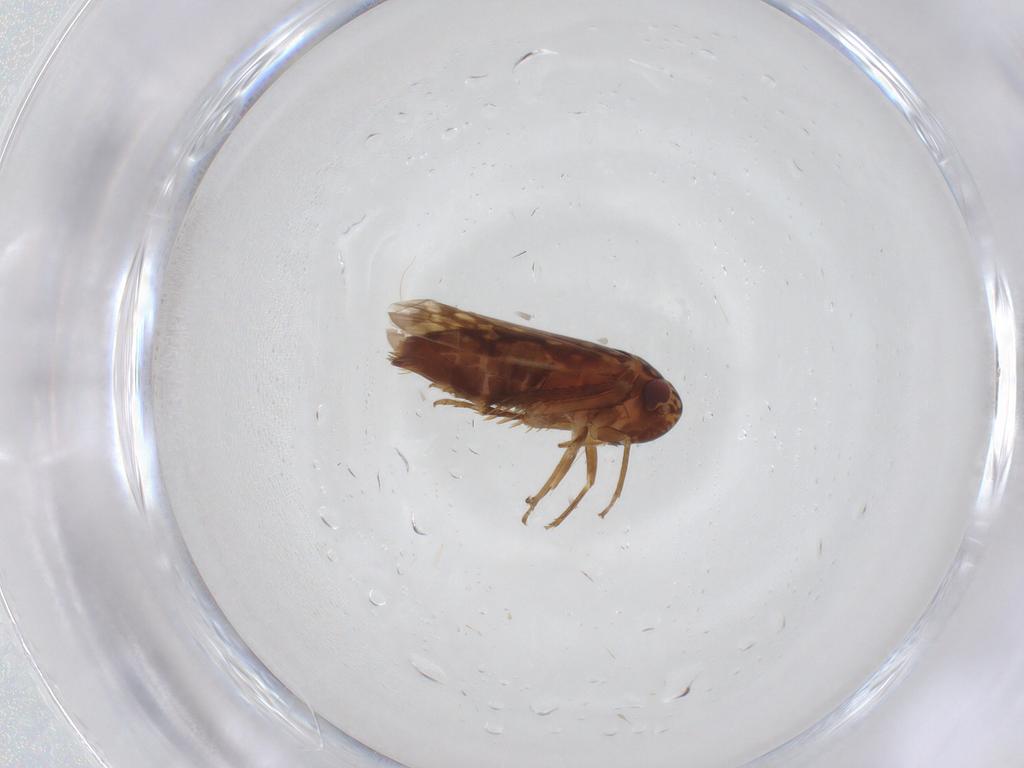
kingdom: Animalia
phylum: Arthropoda
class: Insecta
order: Hemiptera
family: Cicadellidae
